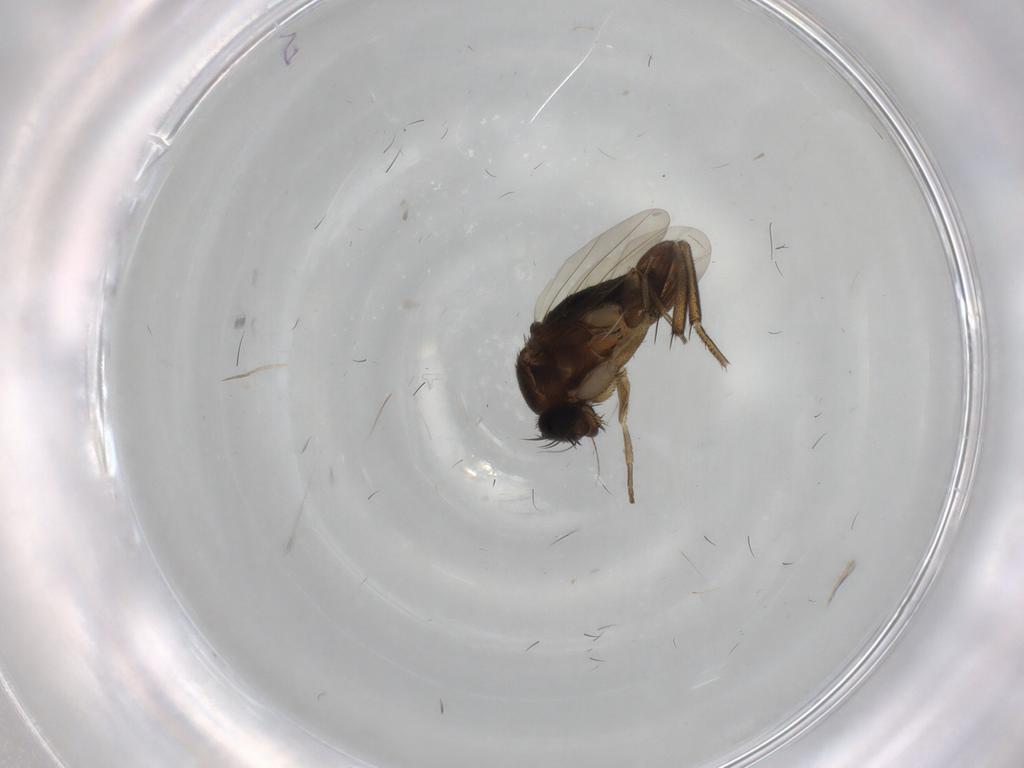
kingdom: Animalia
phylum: Arthropoda
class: Insecta
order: Diptera
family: Phoridae
